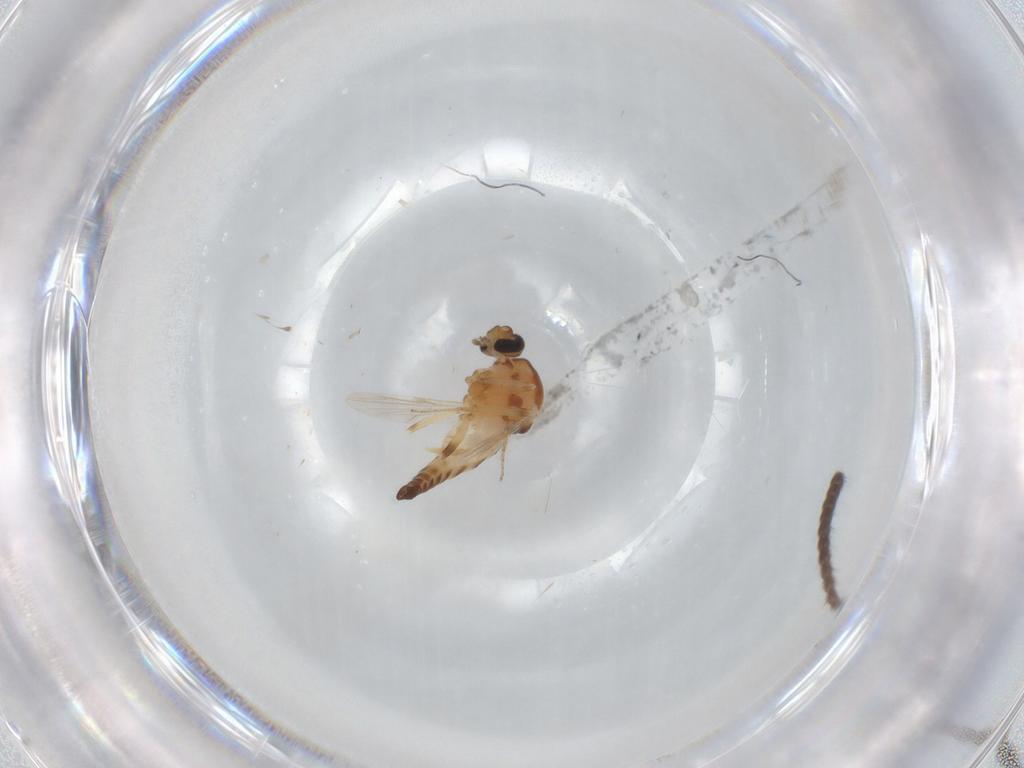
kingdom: Animalia
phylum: Arthropoda
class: Insecta
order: Diptera
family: Ceratopogonidae
